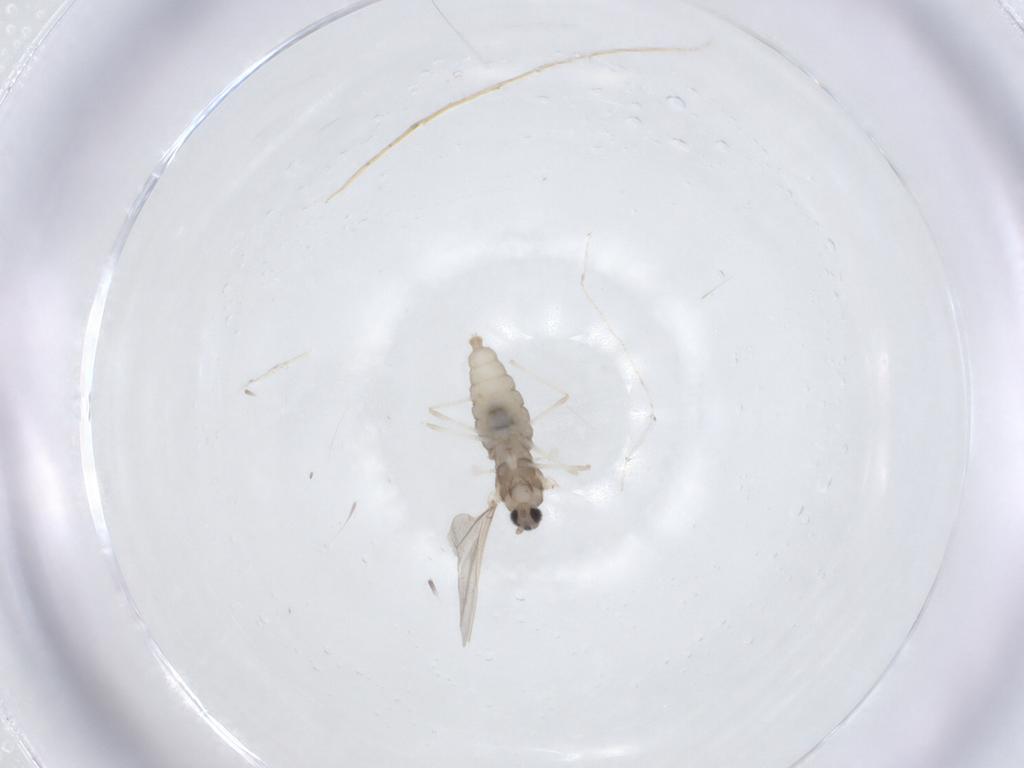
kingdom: Animalia
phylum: Arthropoda
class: Insecta
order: Diptera
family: Cecidomyiidae
